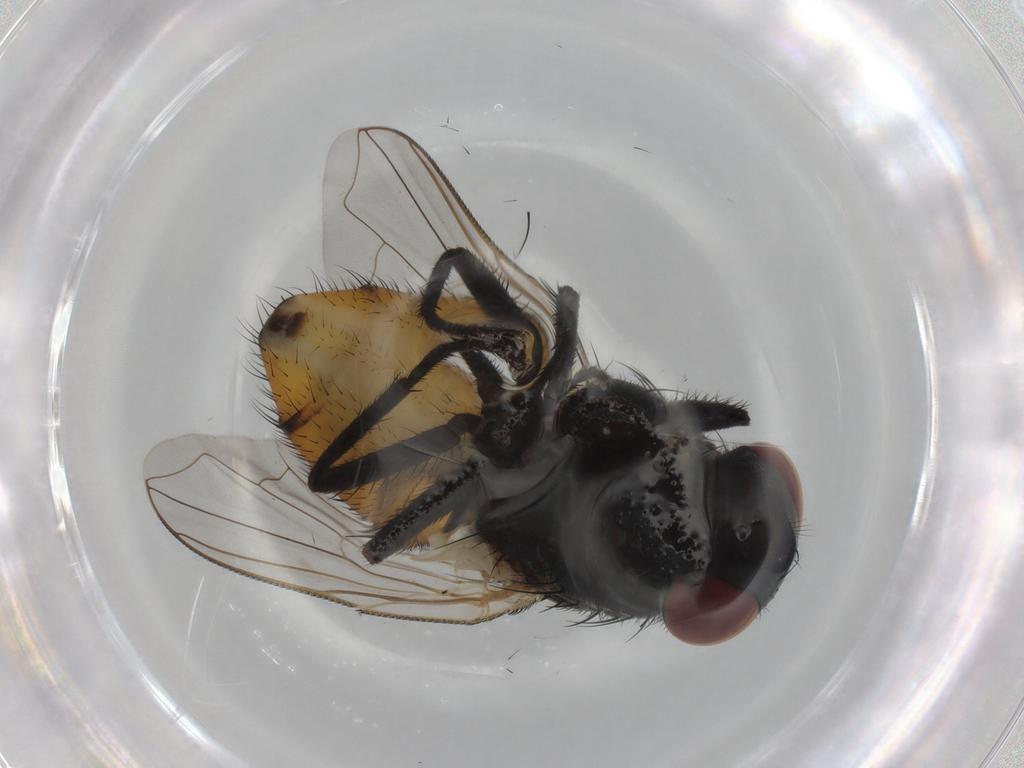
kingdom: Animalia
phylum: Arthropoda
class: Insecta
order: Diptera
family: Muscidae
